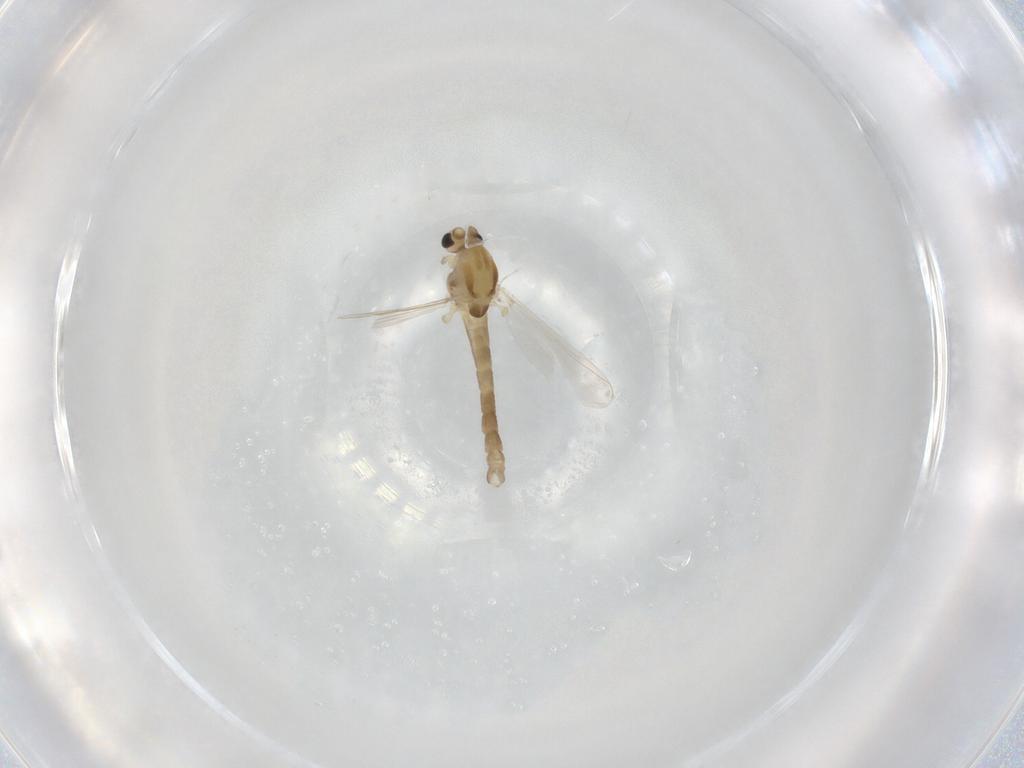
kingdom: Animalia
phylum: Arthropoda
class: Insecta
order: Diptera
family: Chironomidae
